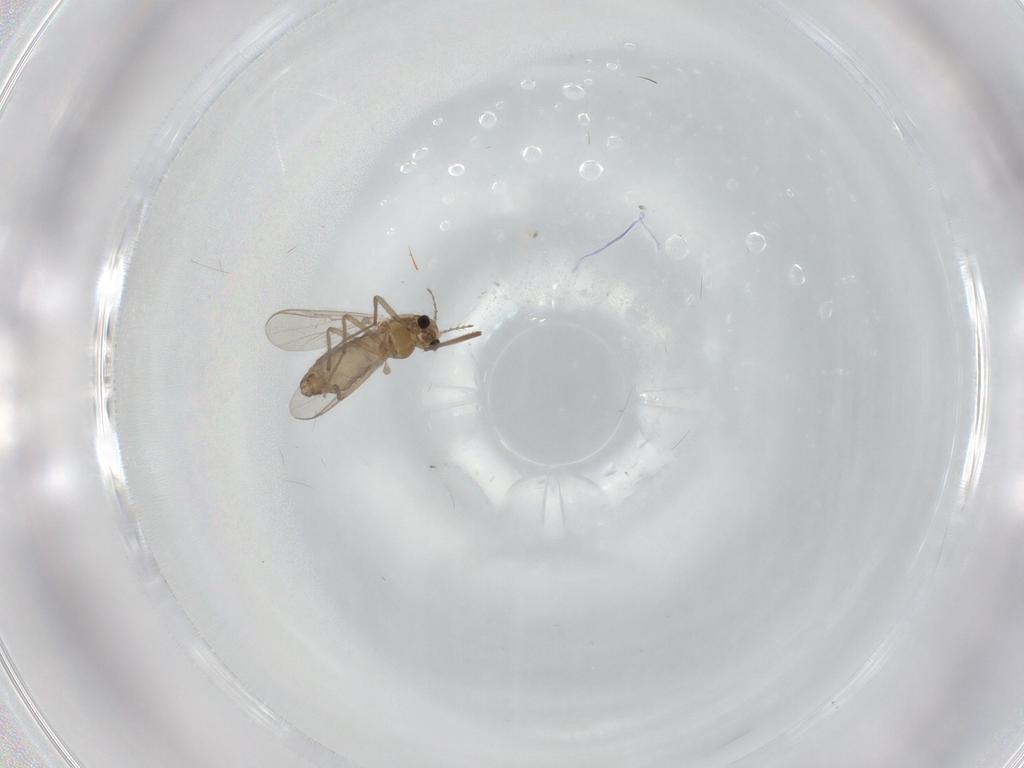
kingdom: Animalia
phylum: Arthropoda
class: Insecta
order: Diptera
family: Chironomidae
